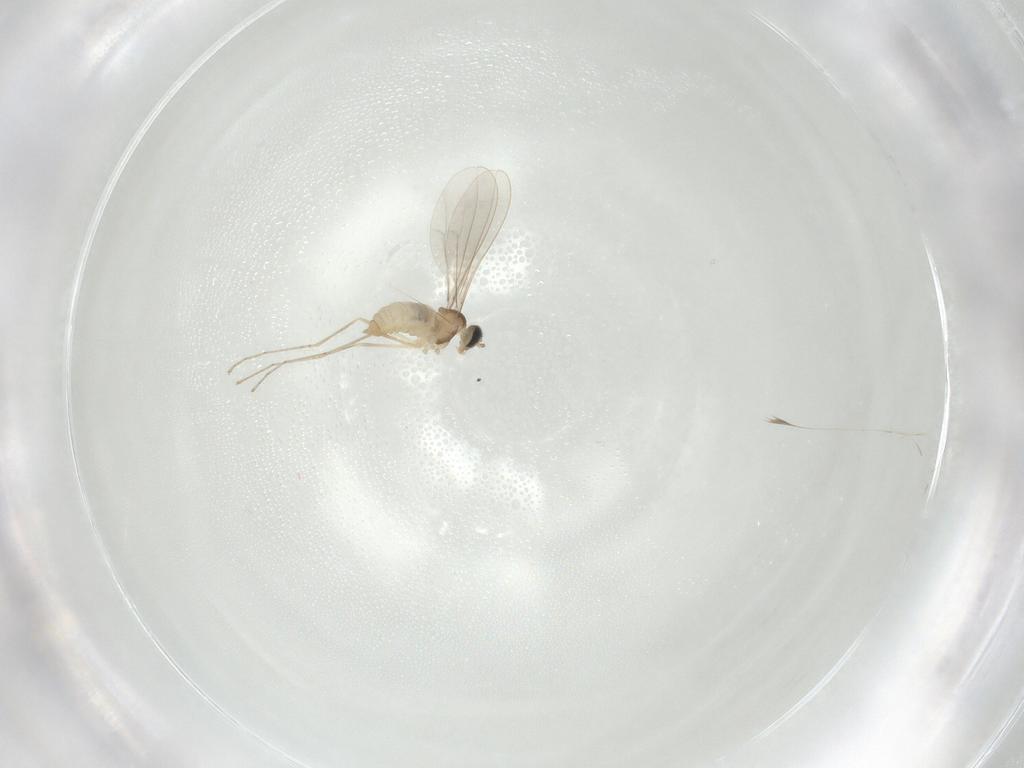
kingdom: Animalia
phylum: Arthropoda
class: Insecta
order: Diptera
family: Cecidomyiidae
